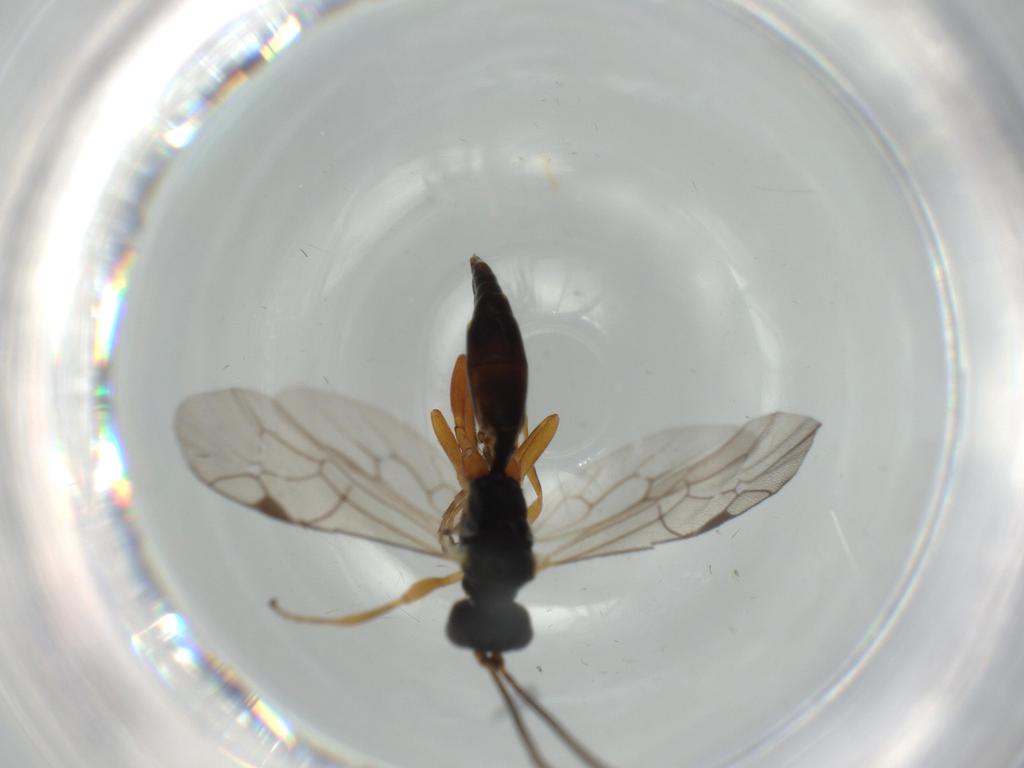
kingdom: Animalia
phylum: Arthropoda
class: Insecta
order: Hymenoptera
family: Ichneumonidae
